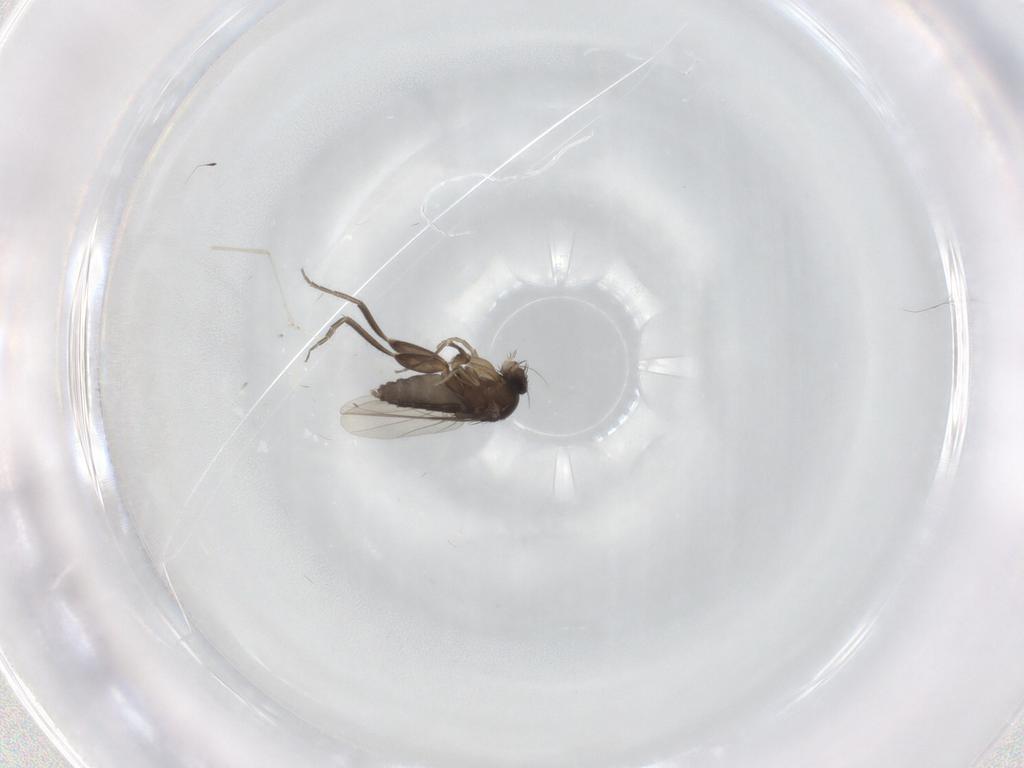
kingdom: Animalia
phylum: Arthropoda
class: Insecta
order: Diptera
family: Phoridae
